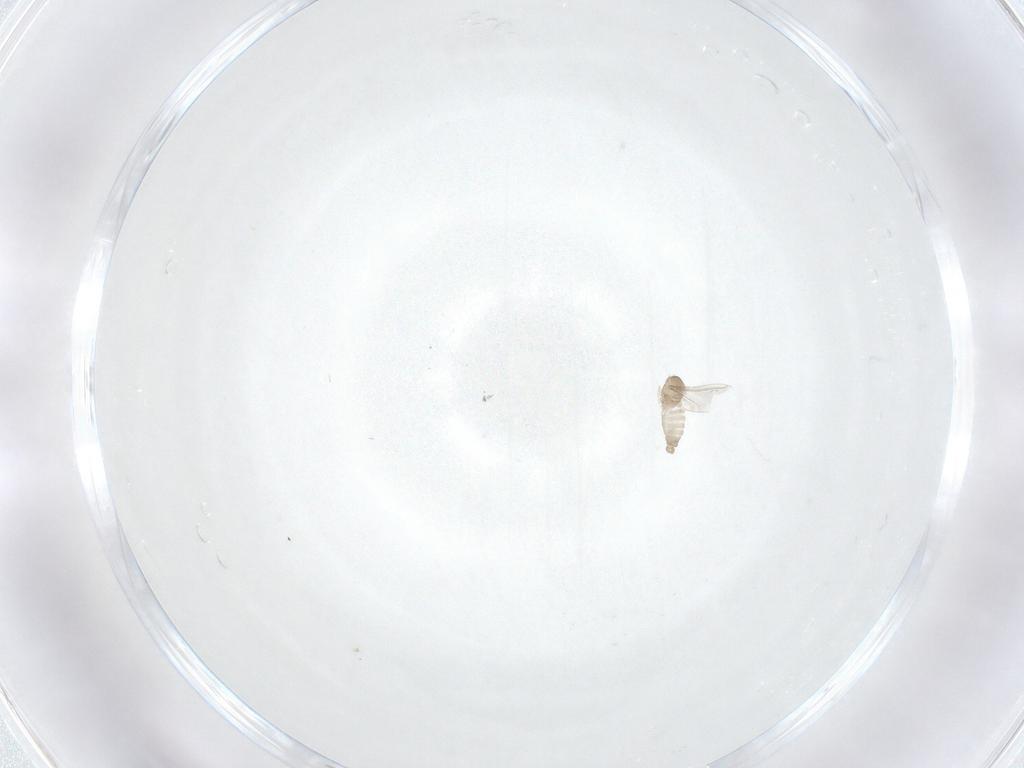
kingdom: Animalia
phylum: Arthropoda
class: Insecta
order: Diptera
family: Cecidomyiidae
